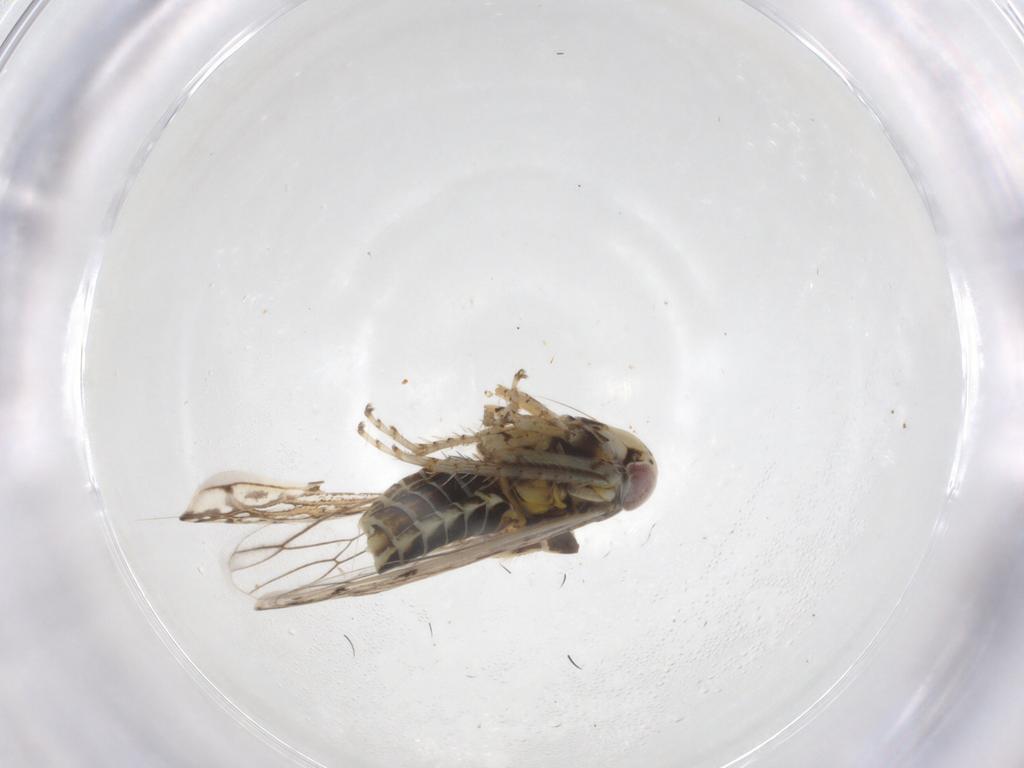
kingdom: Animalia
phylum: Arthropoda
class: Insecta
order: Hemiptera
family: Cicadellidae
